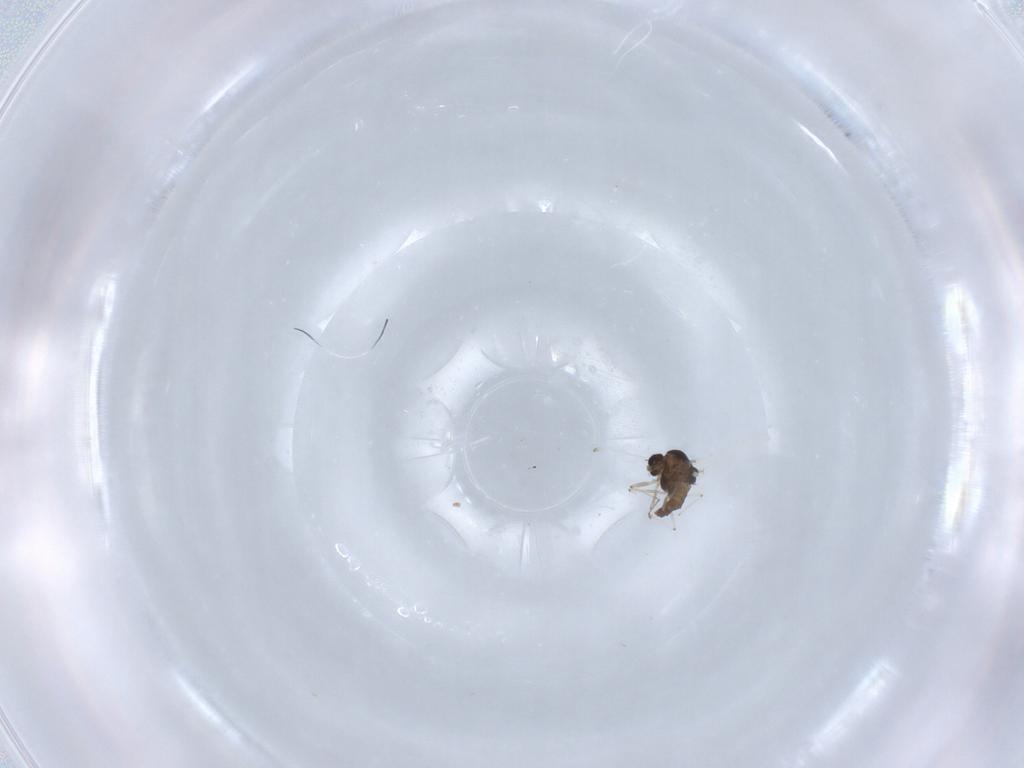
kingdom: Animalia
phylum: Arthropoda
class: Insecta
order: Diptera
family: Chironomidae
